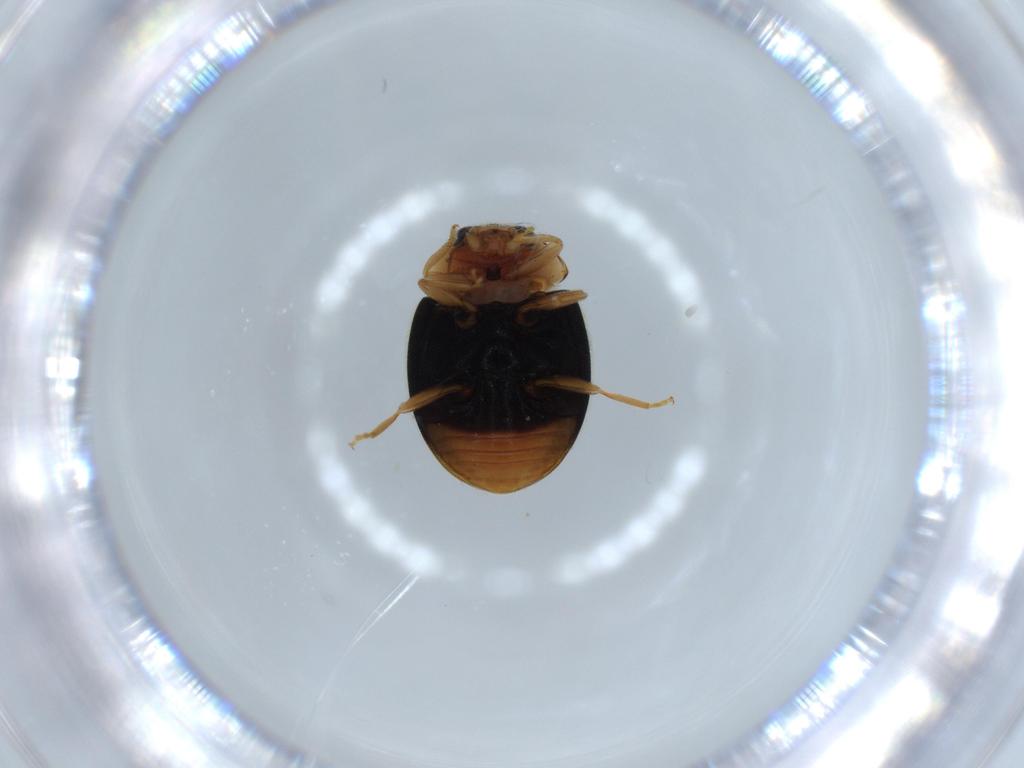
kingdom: Animalia
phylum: Arthropoda
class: Insecta
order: Coleoptera
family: Coccinellidae
